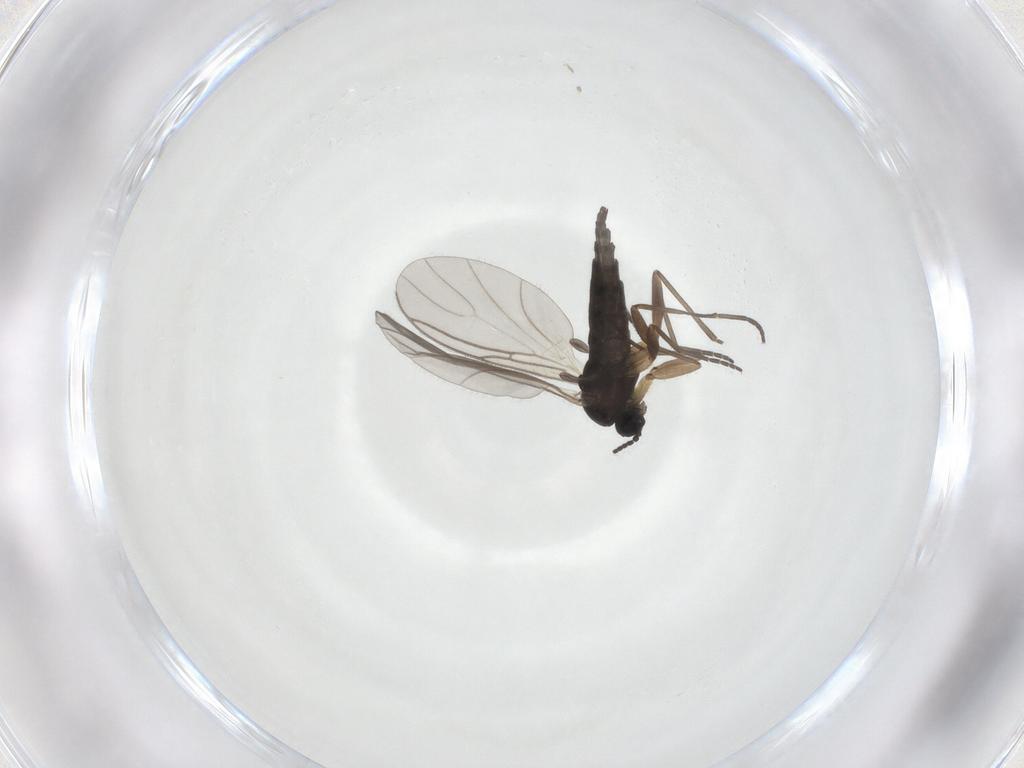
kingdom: Animalia
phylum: Arthropoda
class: Insecta
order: Diptera
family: Sciaridae
